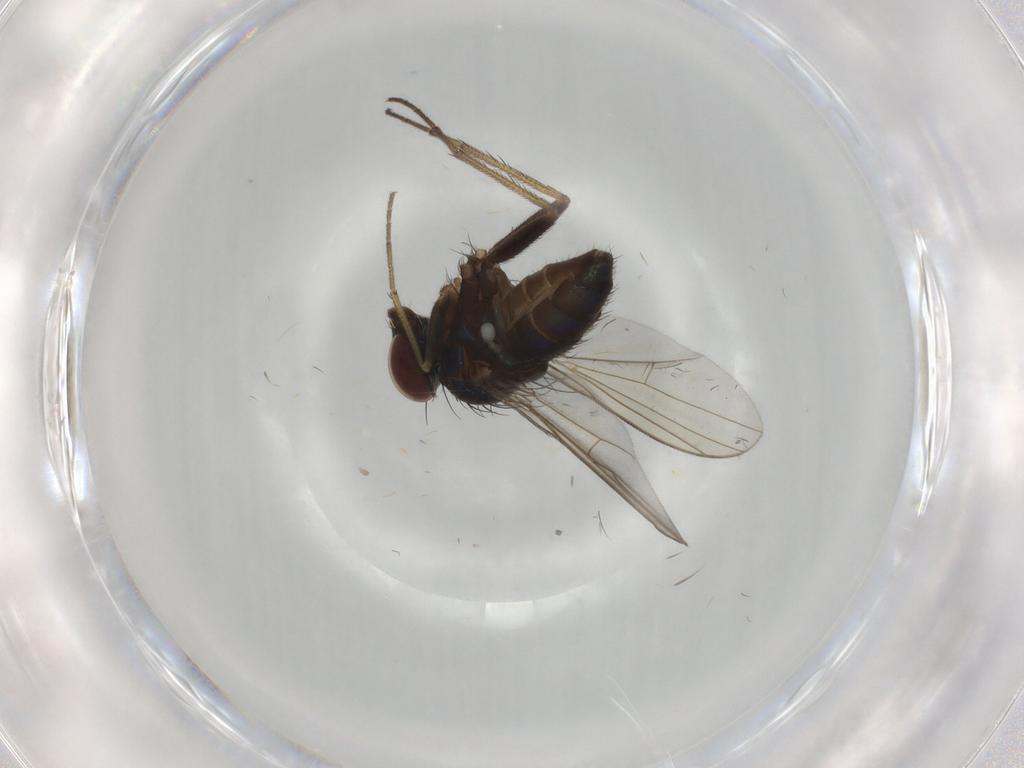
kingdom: Animalia
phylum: Arthropoda
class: Insecta
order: Diptera
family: Dolichopodidae
